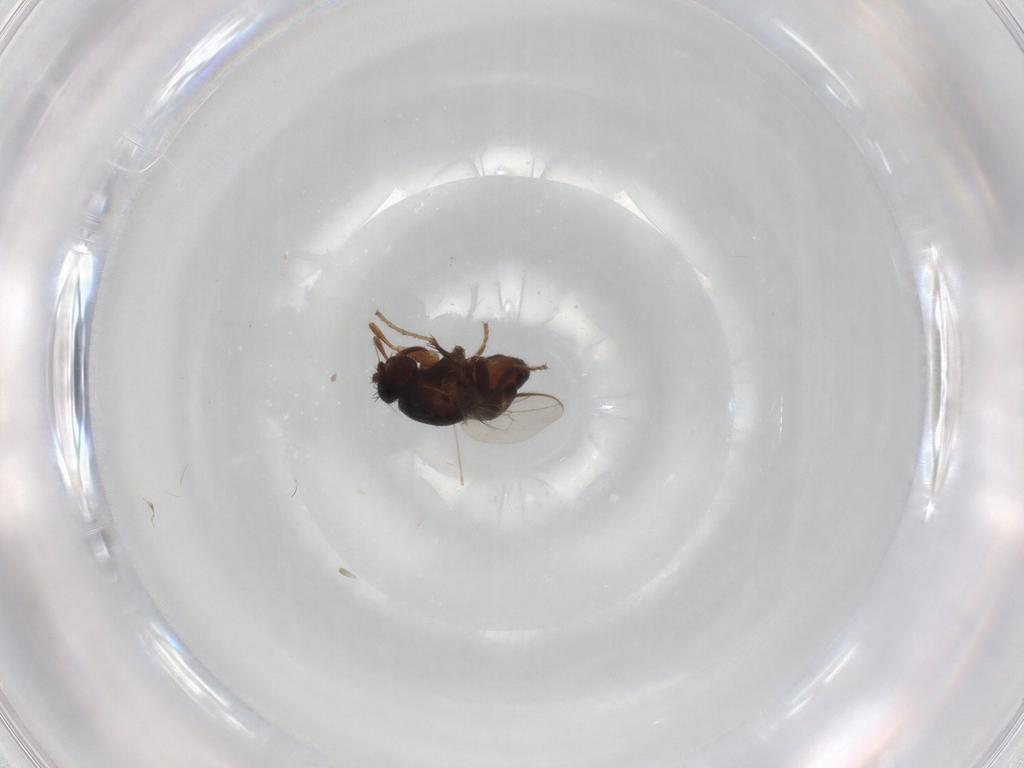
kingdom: Animalia
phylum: Arthropoda
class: Insecta
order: Diptera
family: Sphaeroceridae
